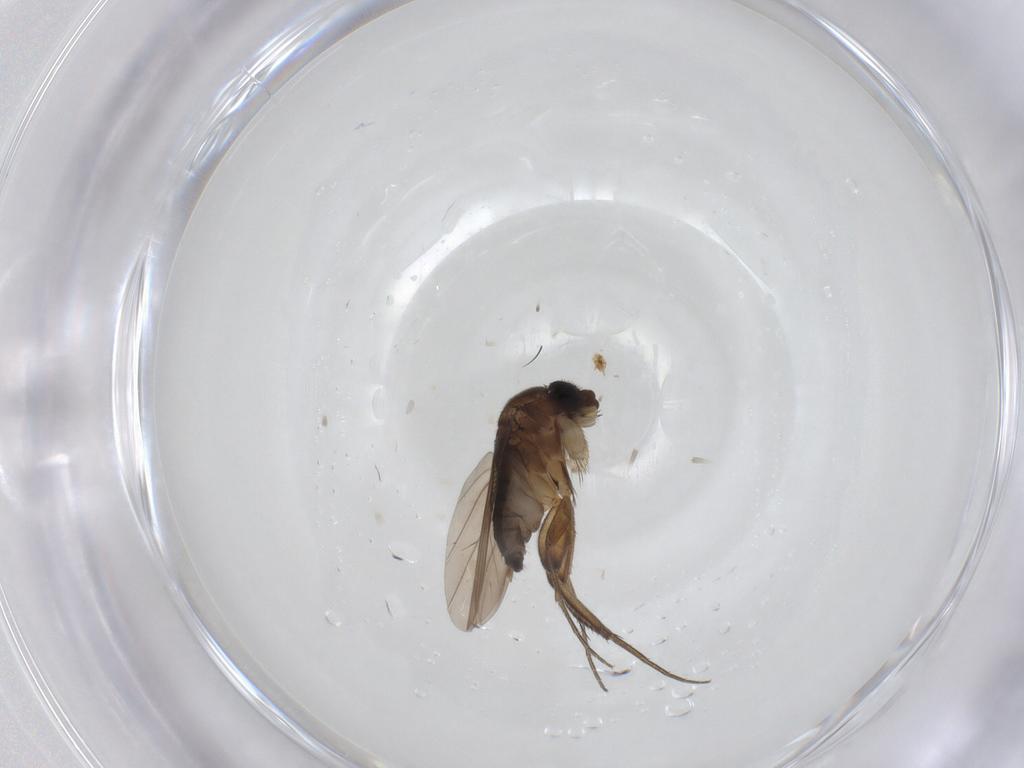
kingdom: Animalia
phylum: Arthropoda
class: Insecta
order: Diptera
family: Phoridae
